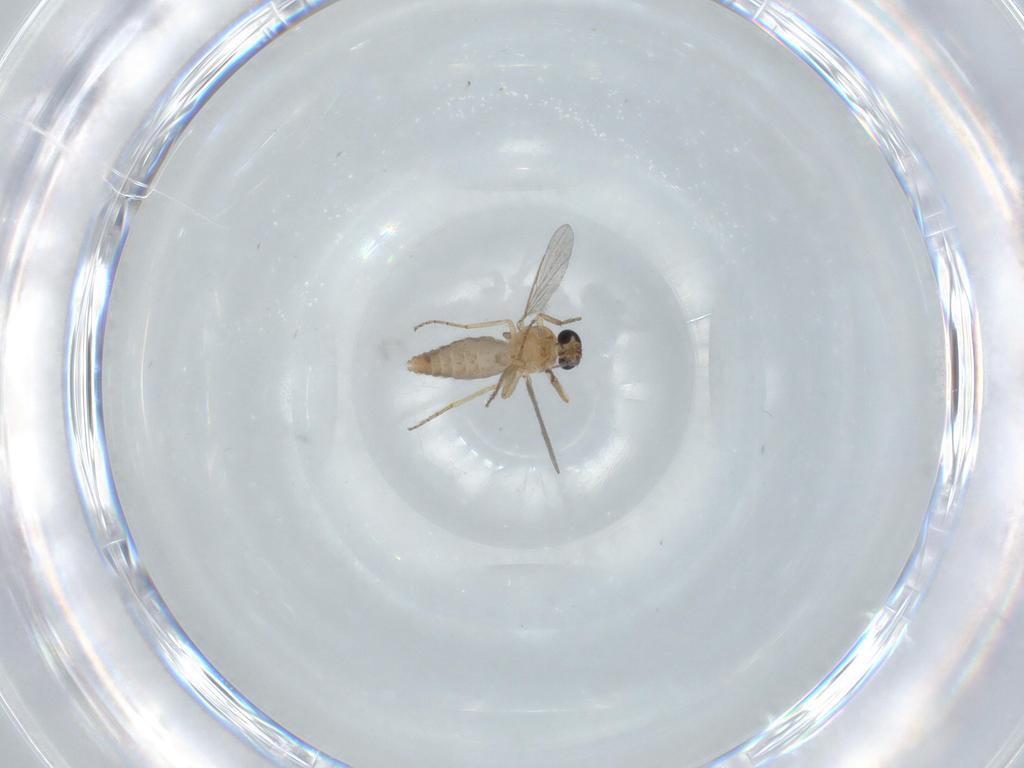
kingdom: Animalia
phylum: Arthropoda
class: Insecta
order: Diptera
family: Ceratopogonidae
